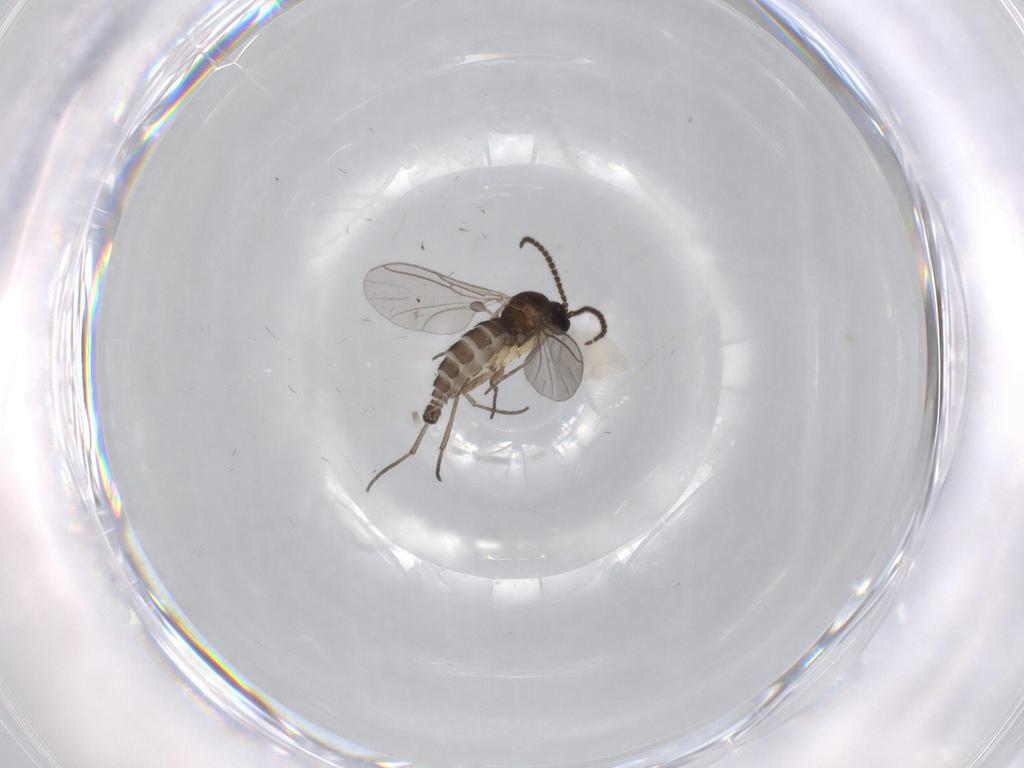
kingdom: Animalia
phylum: Arthropoda
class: Insecta
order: Diptera
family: Sciaridae
